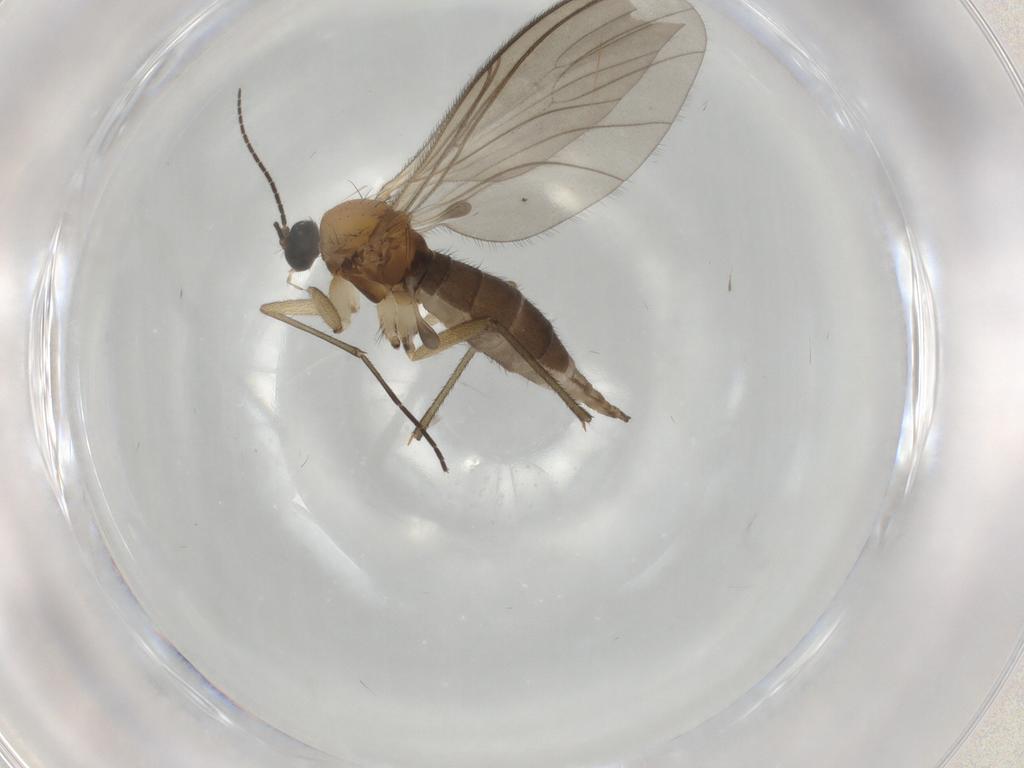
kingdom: Animalia
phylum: Arthropoda
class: Insecta
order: Diptera
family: Sciaridae
